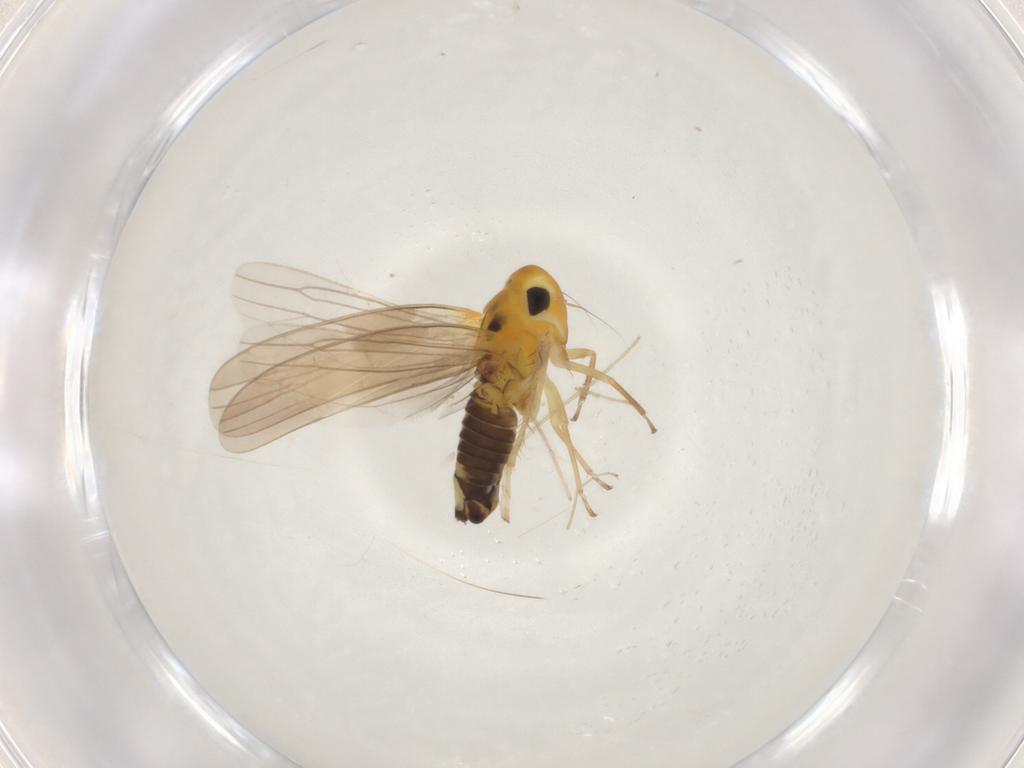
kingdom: Animalia
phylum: Arthropoda
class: Insecta
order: Hemiptera
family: Cicadellidae
